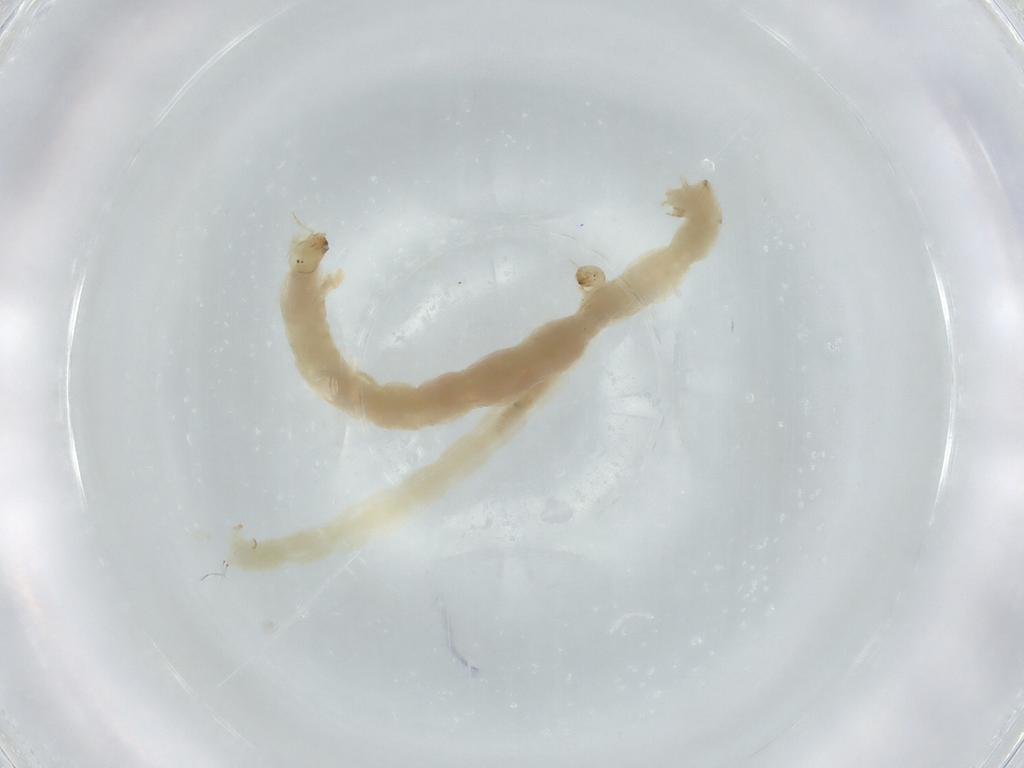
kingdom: Animalia
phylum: Arthropoda
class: Insecta
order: Diptera
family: Chironomidae
